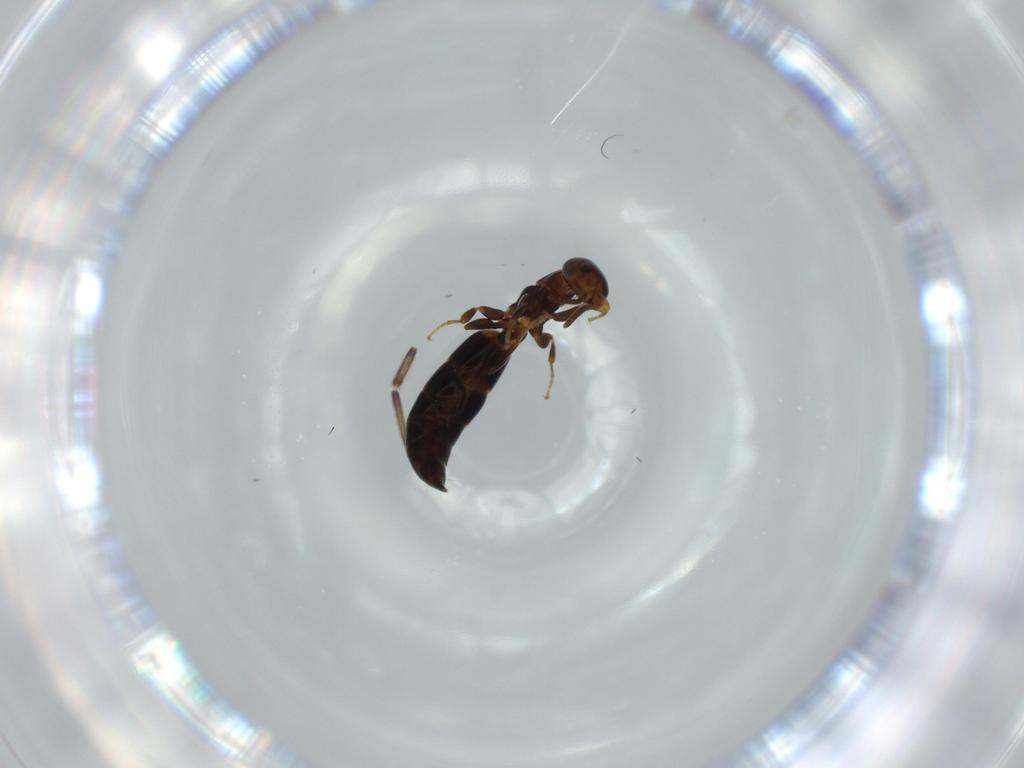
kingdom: Animalia
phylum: Arthropoda
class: Insecta
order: Hymenoptera
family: Bethylidae
